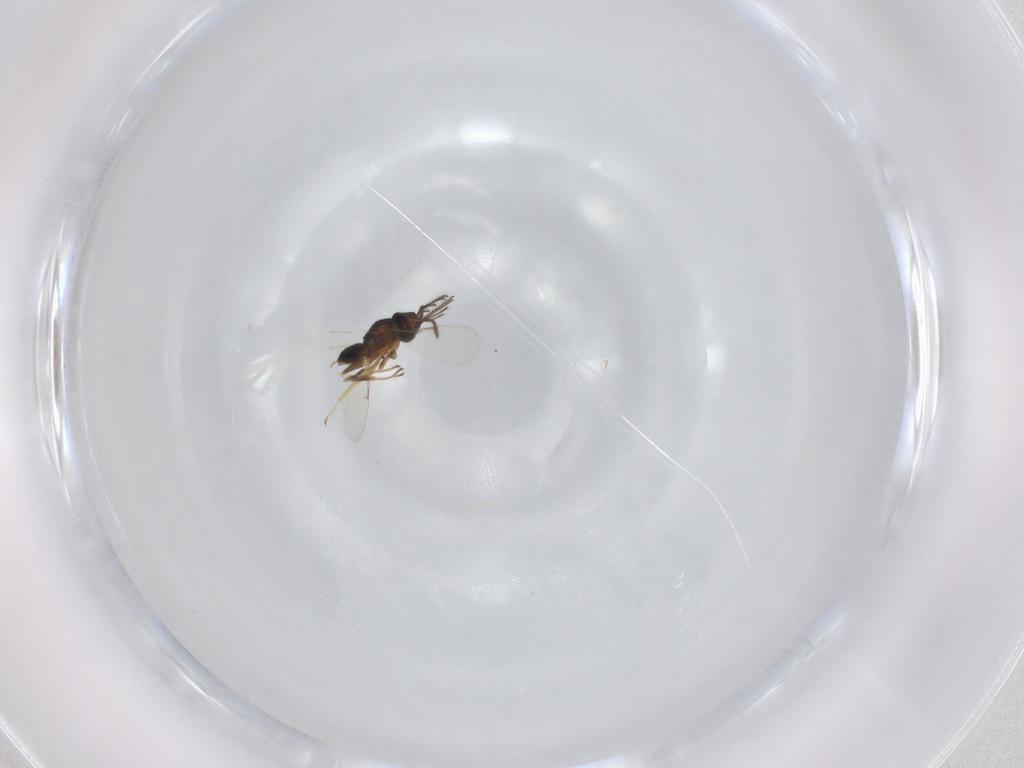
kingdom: Animalia
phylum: Arthropoda
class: Insecta
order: Hymenoptera
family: Encyrtidae
